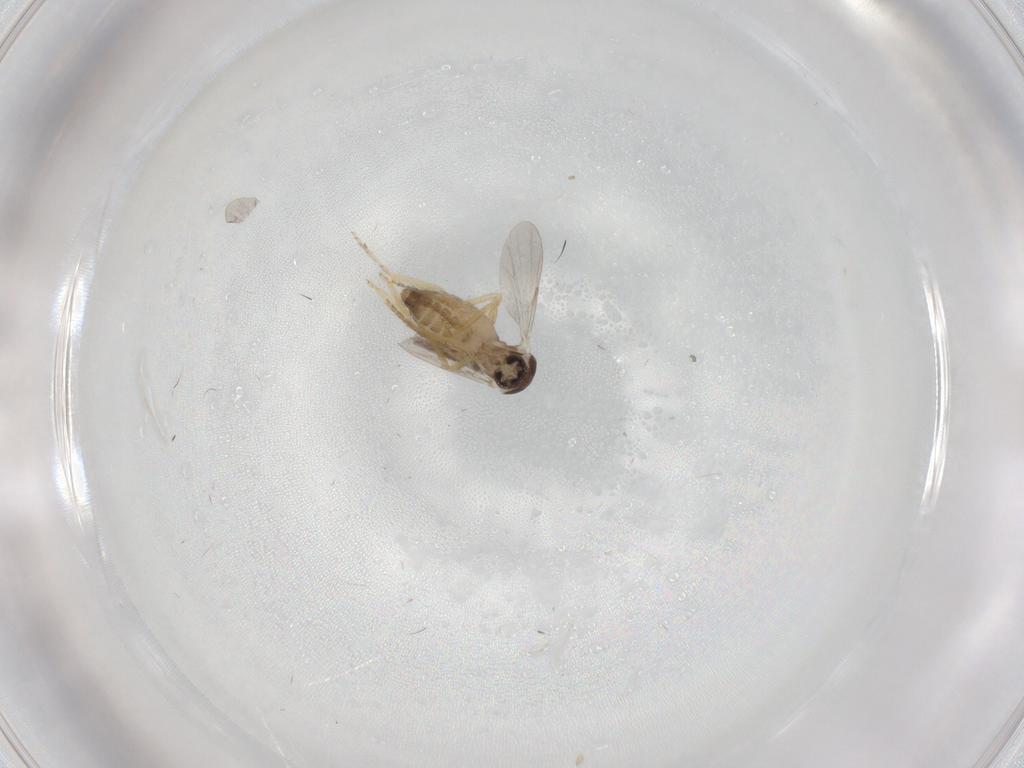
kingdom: Animalia
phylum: Arthropoda
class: Insecta
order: Diptera
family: Ceratopogonidae
